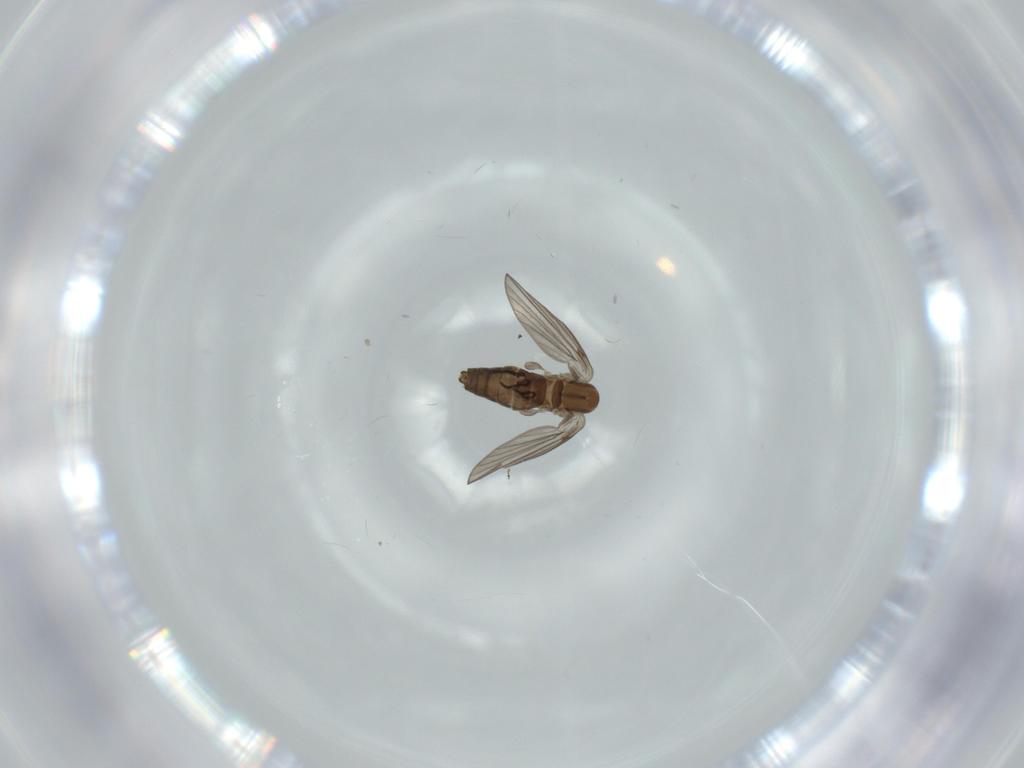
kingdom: Animalia
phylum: Arthropoda
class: Insecta
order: Diptera
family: Psychodidae
